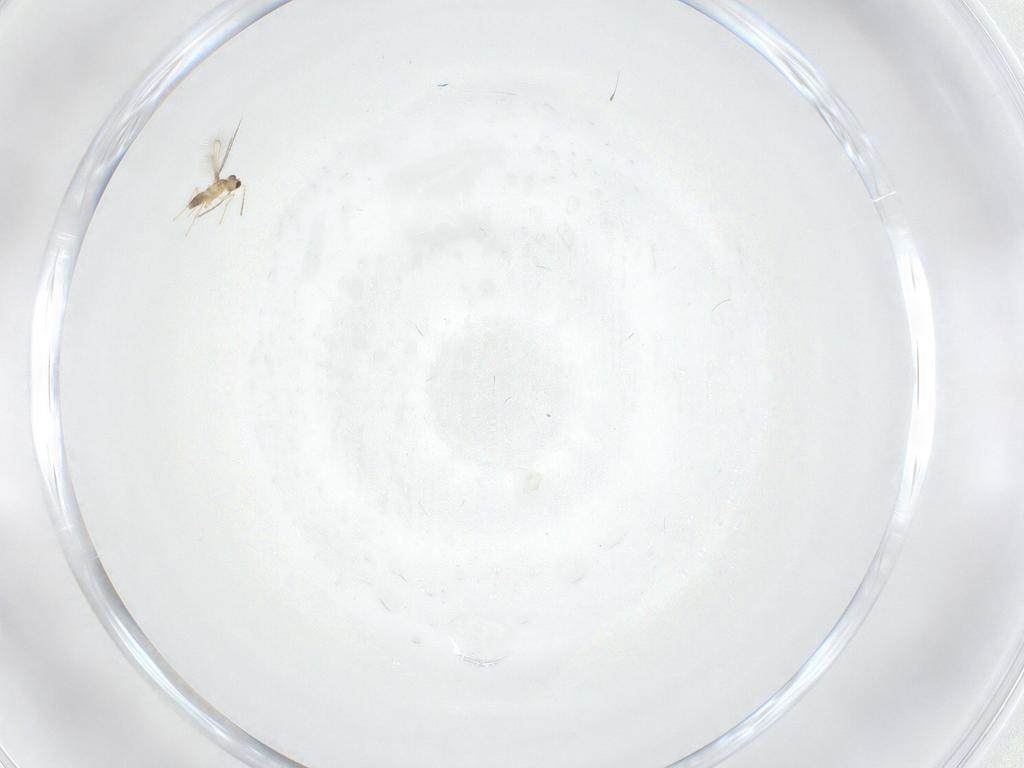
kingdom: Animalia
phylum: Arthropoda
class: Insecta
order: Hymenoptera
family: Mymaridae
